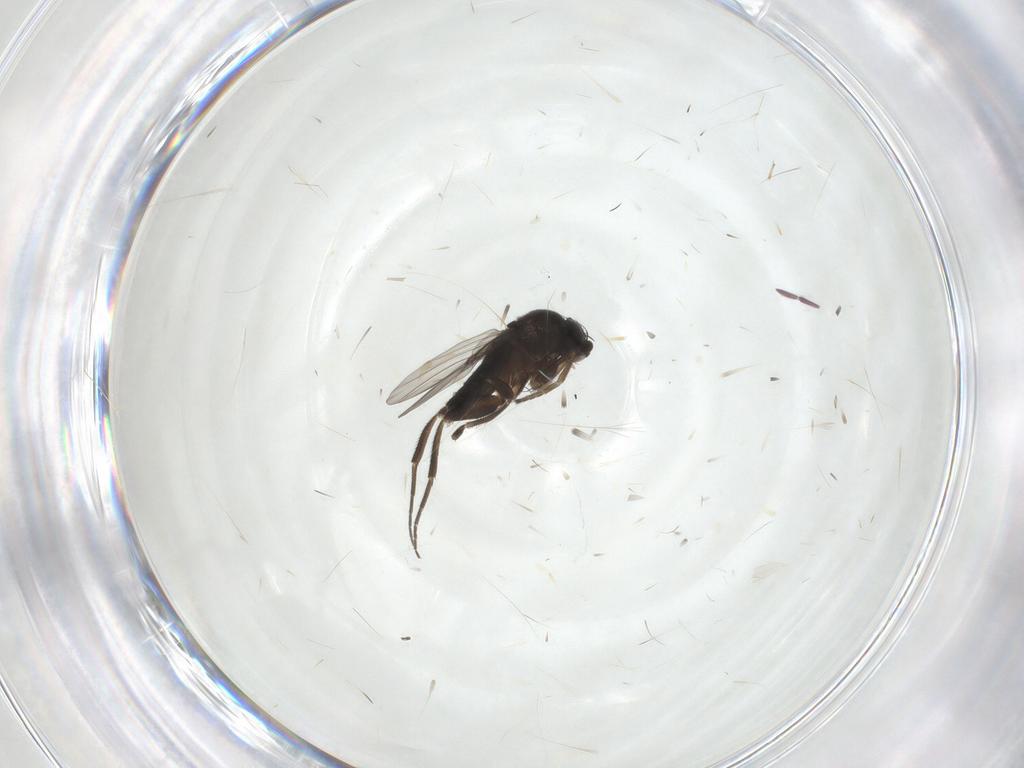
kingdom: Animalia
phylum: Arthropoda
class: Insecta
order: Diptera
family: Phoridae
